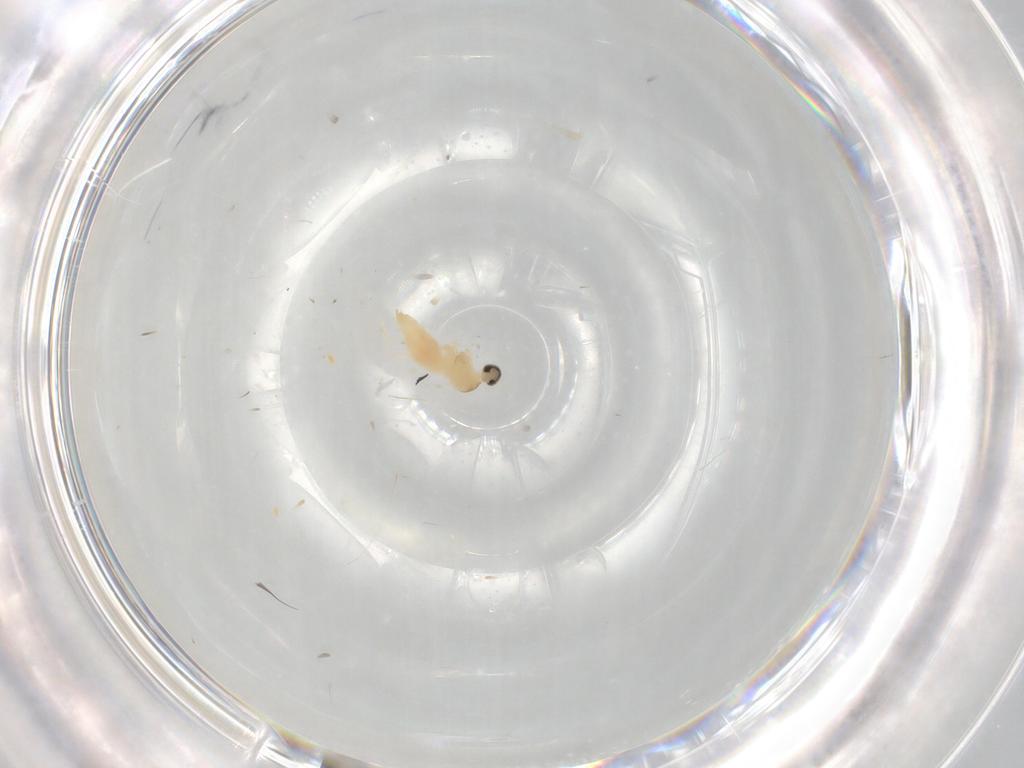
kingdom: Animalia
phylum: Arthropoda
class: Insecta
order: Diptera
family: Cecidomyiidae
